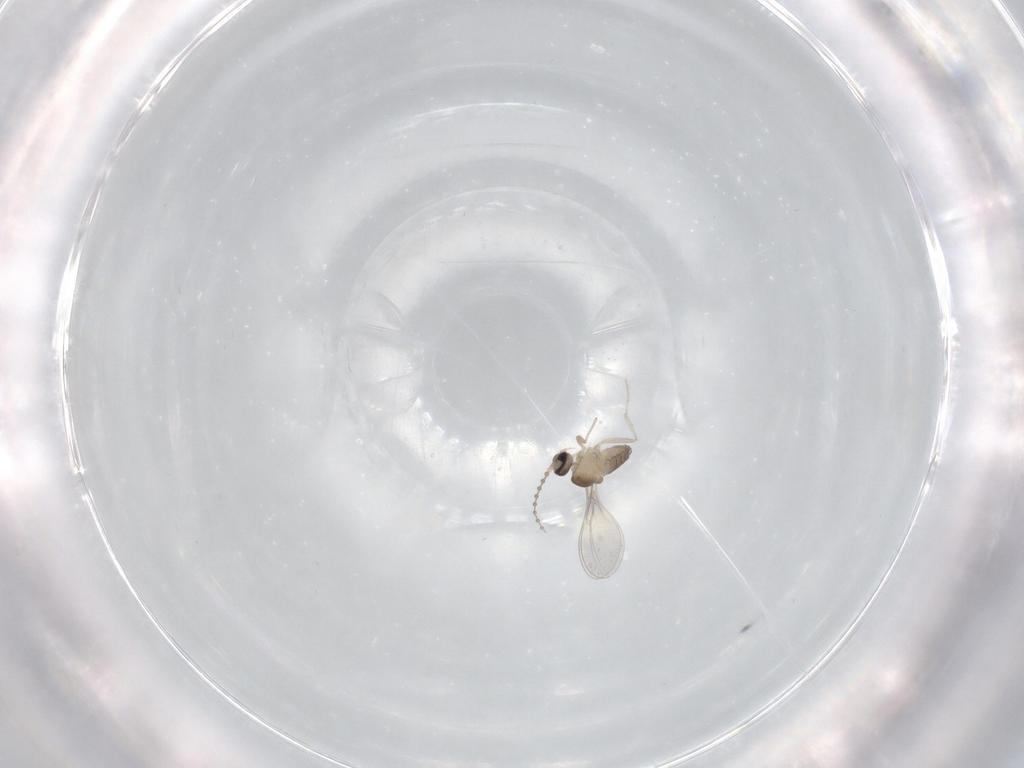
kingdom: Animalia
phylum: Arthropoda
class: Insecta
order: Diptera
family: Cecidomyiidae
